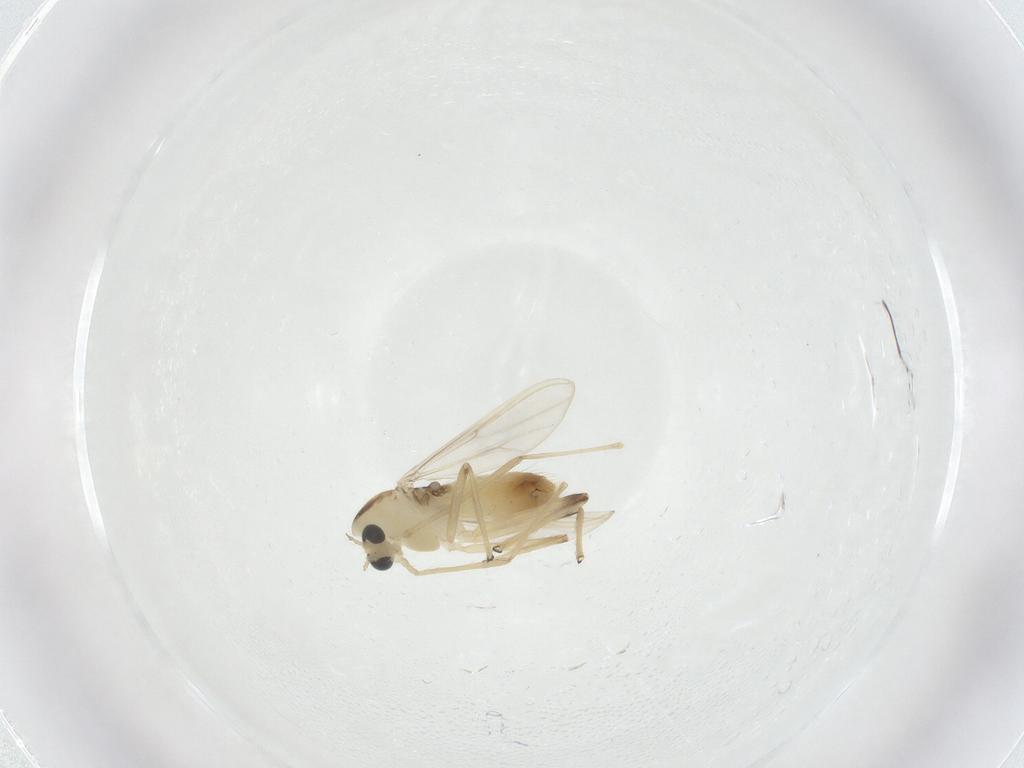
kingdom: Animalia
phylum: Arthropoda
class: Insecta
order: Diptera
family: Chironomidae
